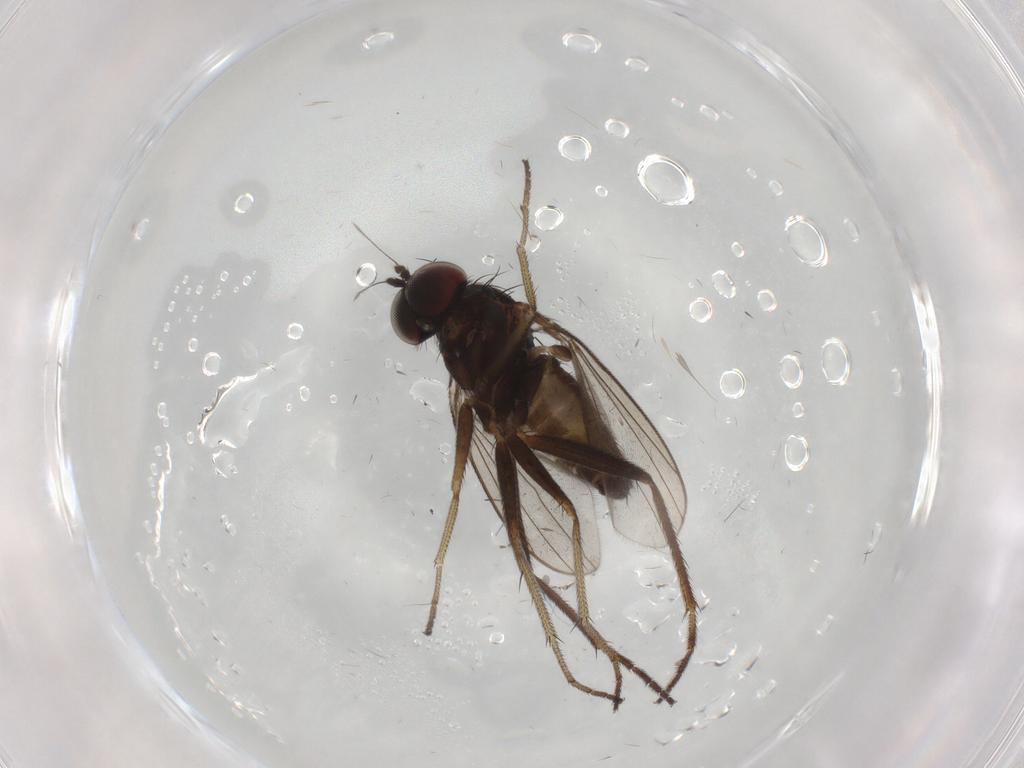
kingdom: Animalia
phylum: Arthropoda
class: Insecta
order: Diptera
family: Dolichopodidae
